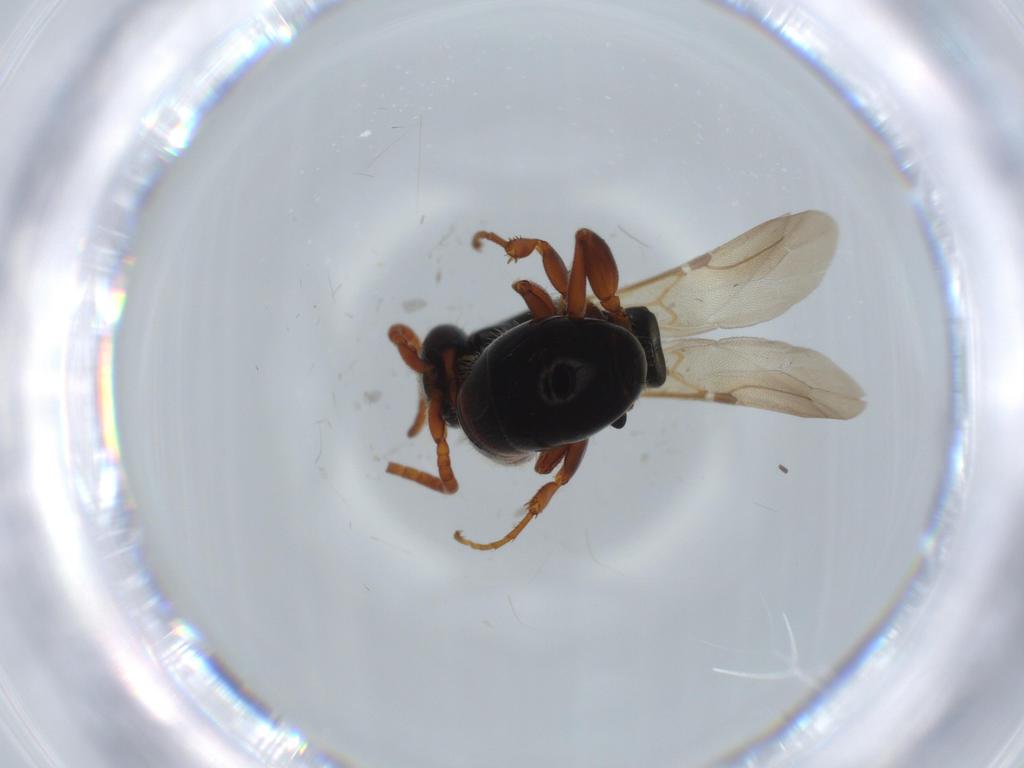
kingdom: Animalia
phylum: Arthropoda
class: Insecta
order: Hymenoptera
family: Bethylidae
